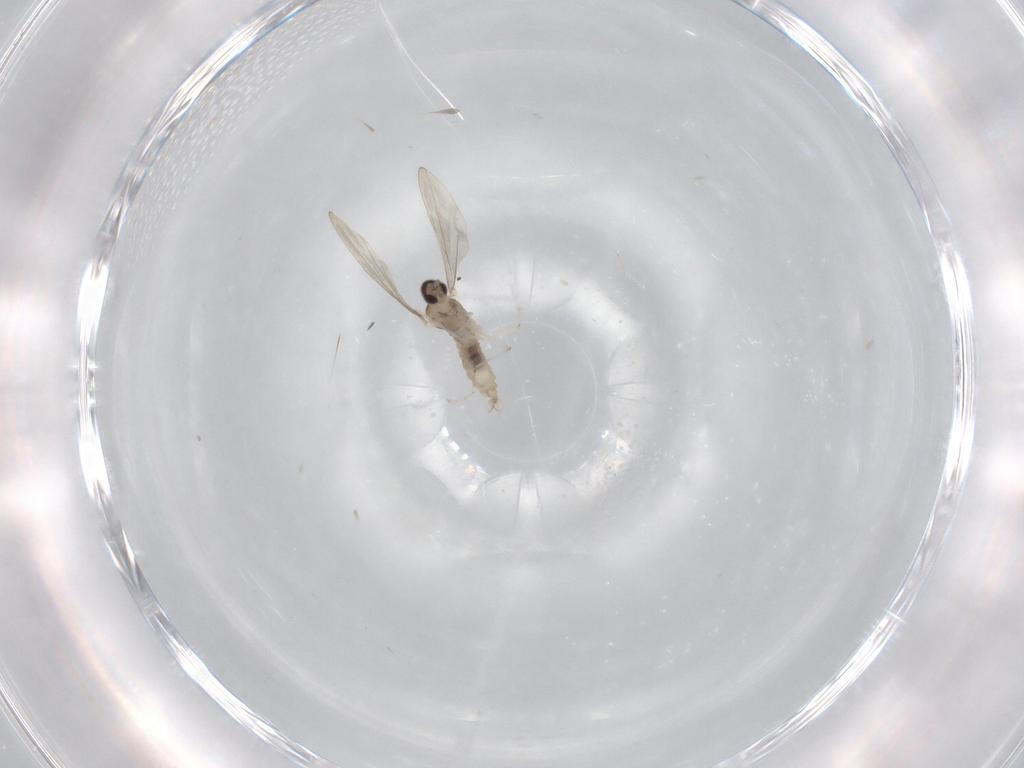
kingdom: Animalia
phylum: Arthropoda
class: Insecta
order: Diptera
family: Cecidomyiidae
